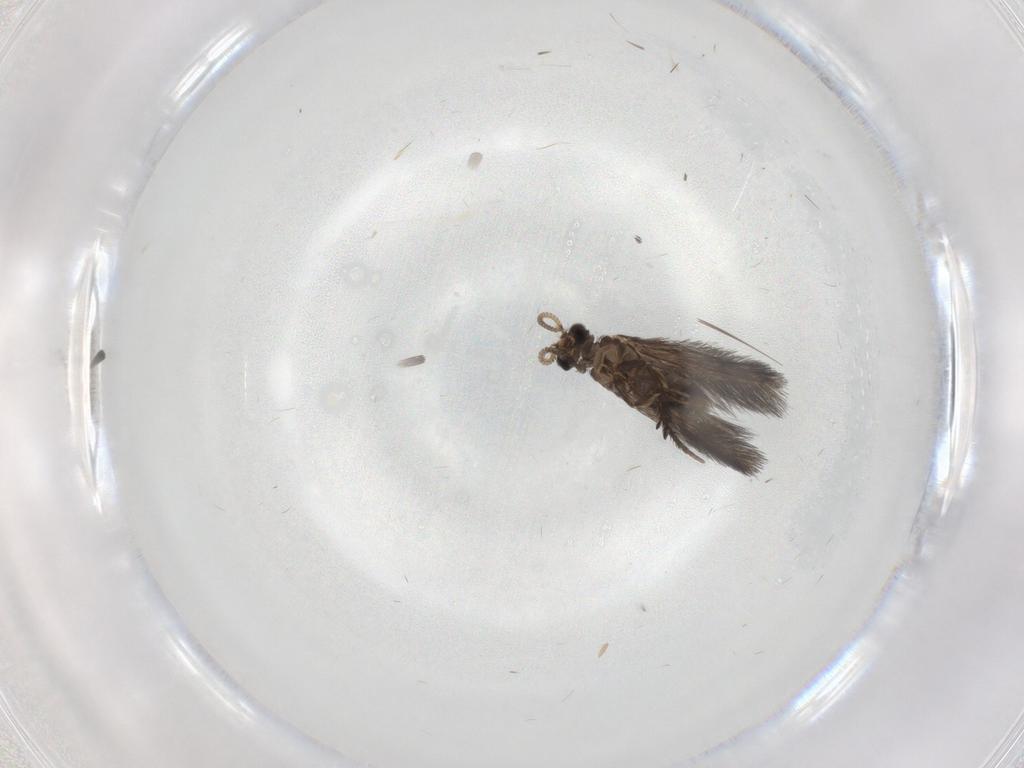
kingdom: Animalia
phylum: Arthropoda
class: Insecta
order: Trichoptera
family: Hydroptilidae
